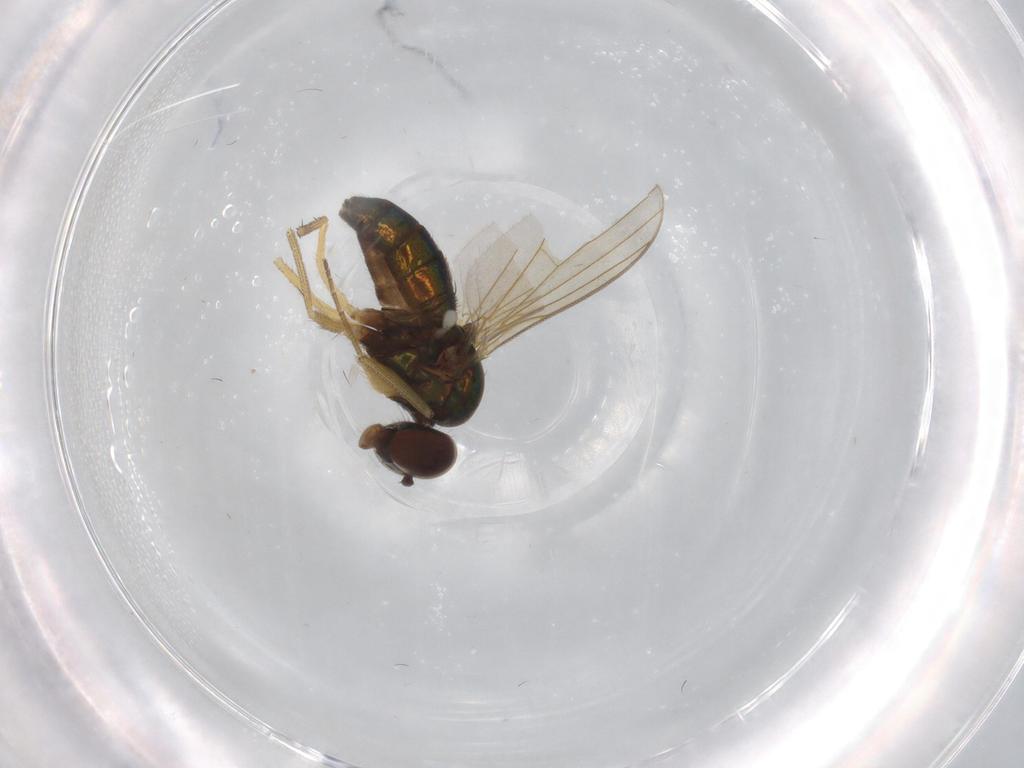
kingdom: Animalia
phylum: Arthropoda
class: Insecta
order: Diptera
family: Dolichopodidae
